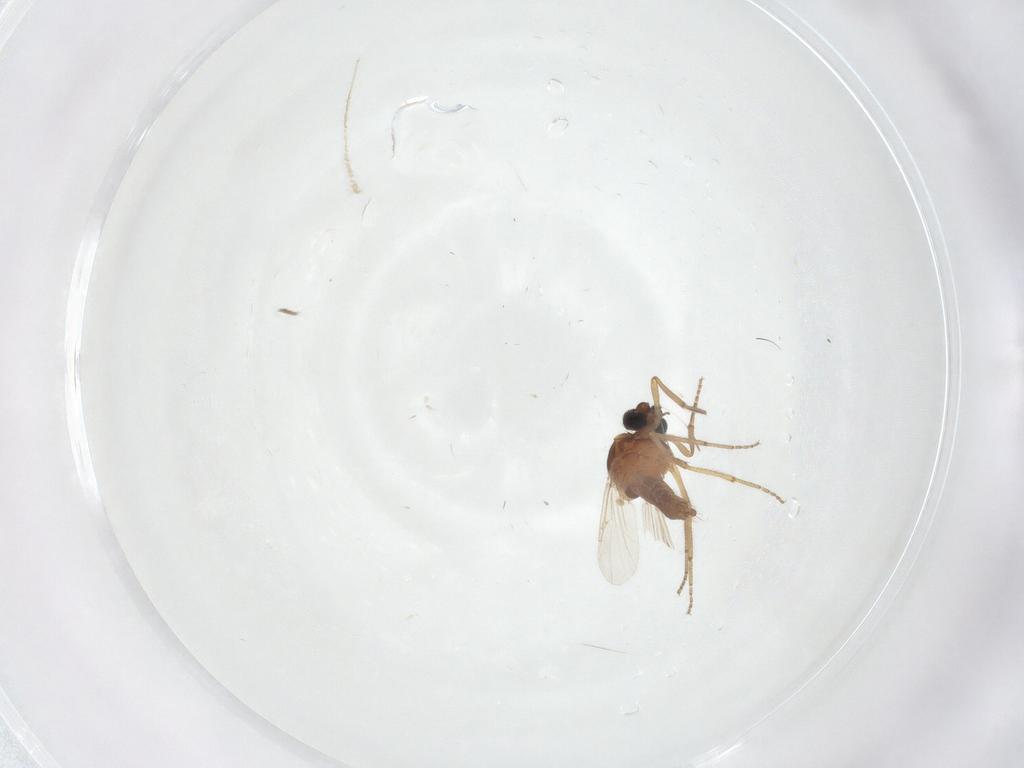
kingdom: Animalia
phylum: Arthropoda
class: Insecta
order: Diptera
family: Ceratopogonidae
